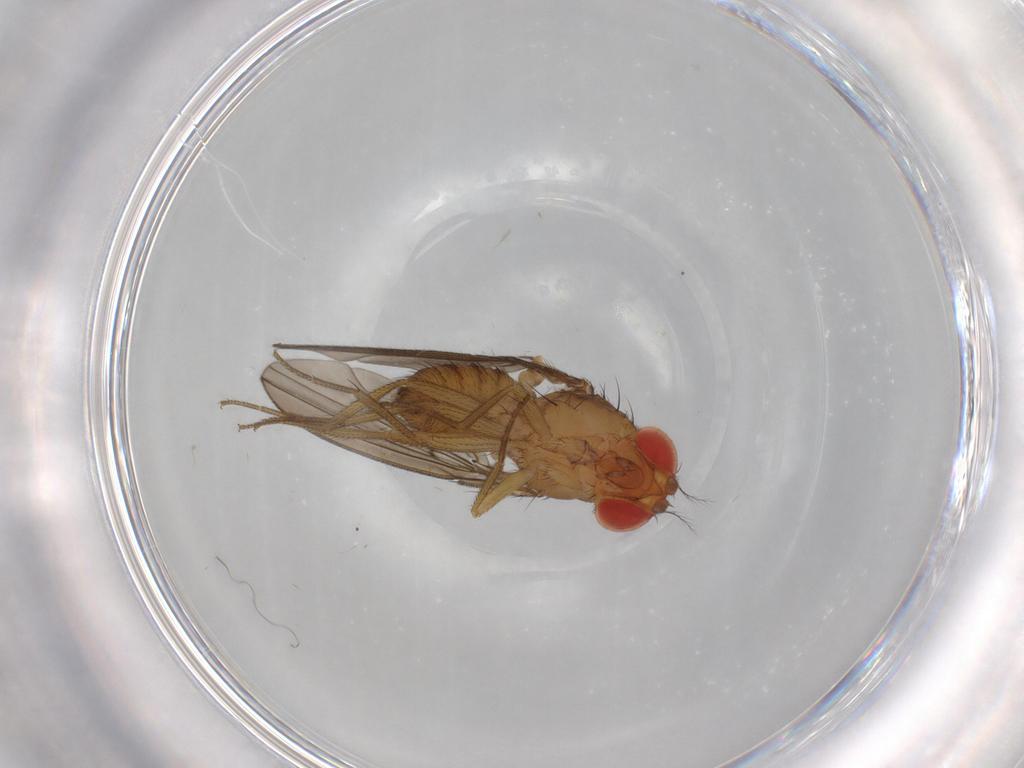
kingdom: Animalia
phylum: Arthropoda
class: Insecta
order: Diptera
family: Drosophilidae
